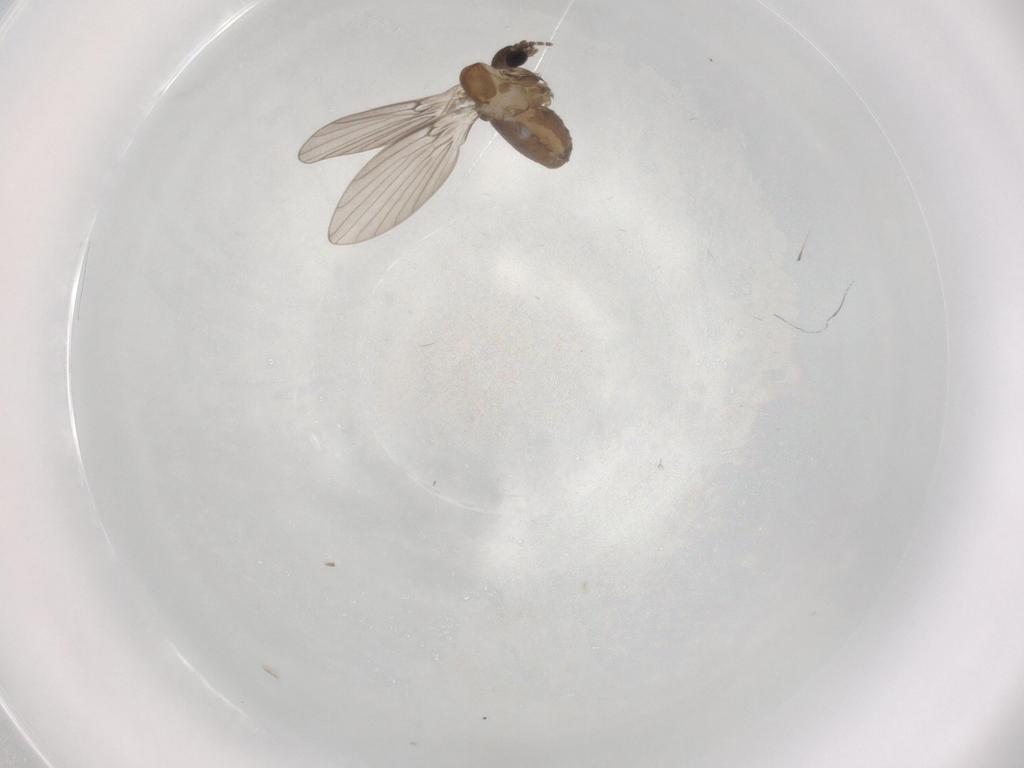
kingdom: Animalia
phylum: Arthropoda
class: Insecta
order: Diptera
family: Psychodidae
